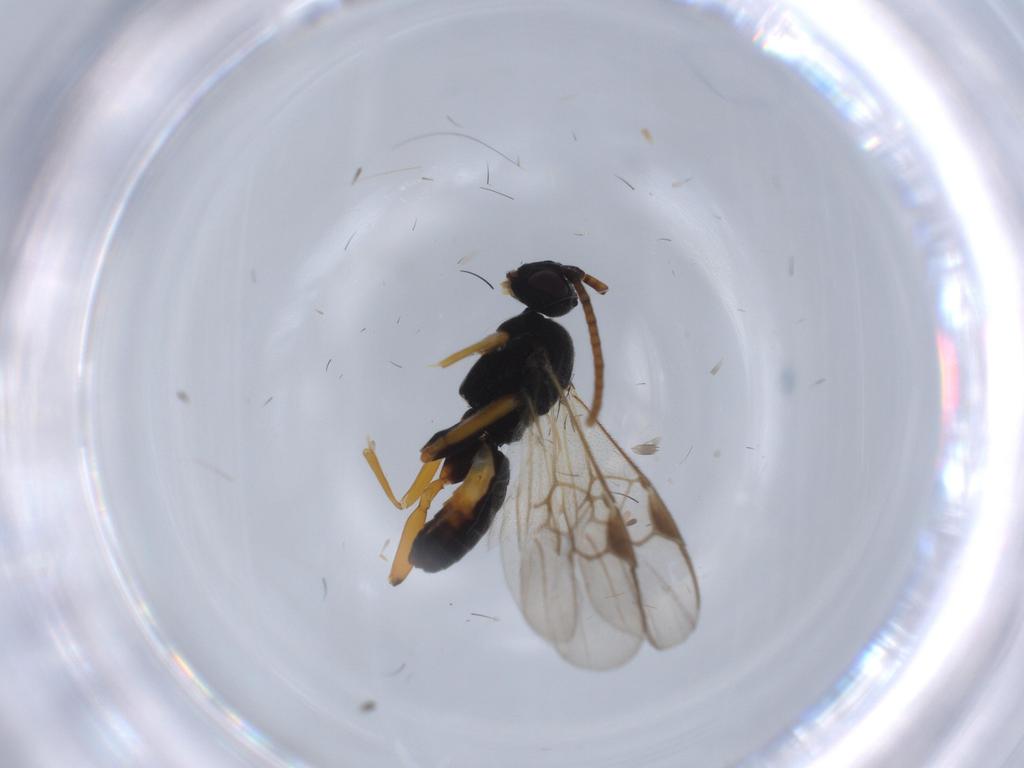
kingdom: Animalia
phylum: Arthropoda
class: Insecta
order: Hymenoptera
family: Braconidae
